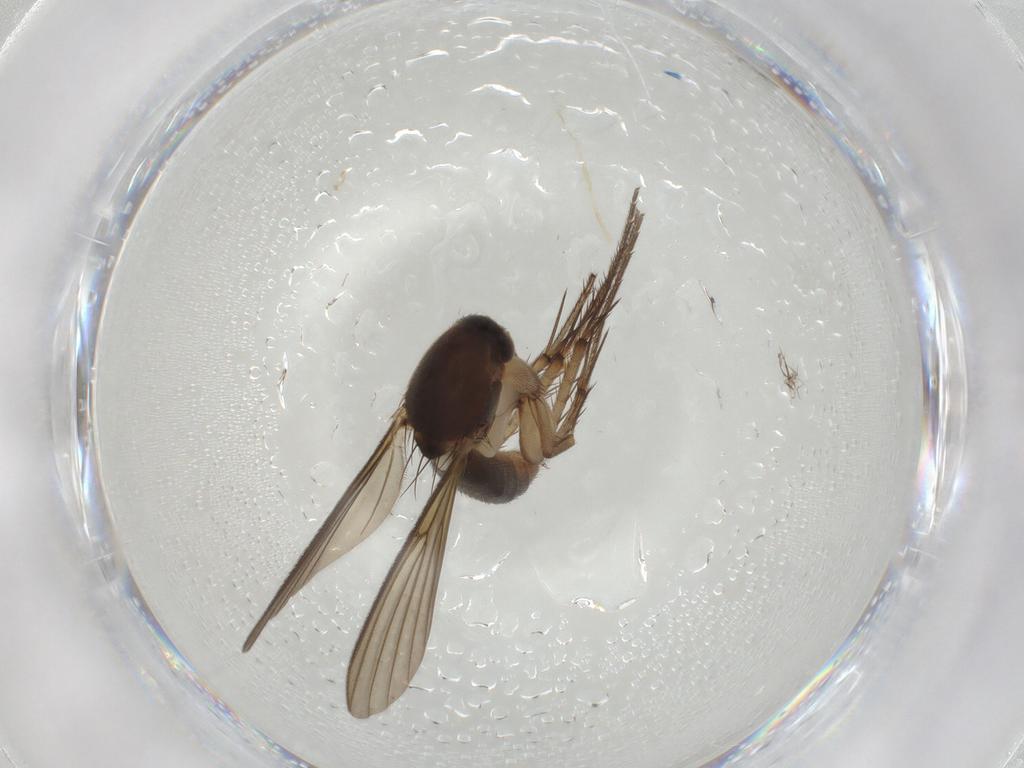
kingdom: Animalia
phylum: Arthropoda
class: Insecta
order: Diptera
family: Mycetophilidae
